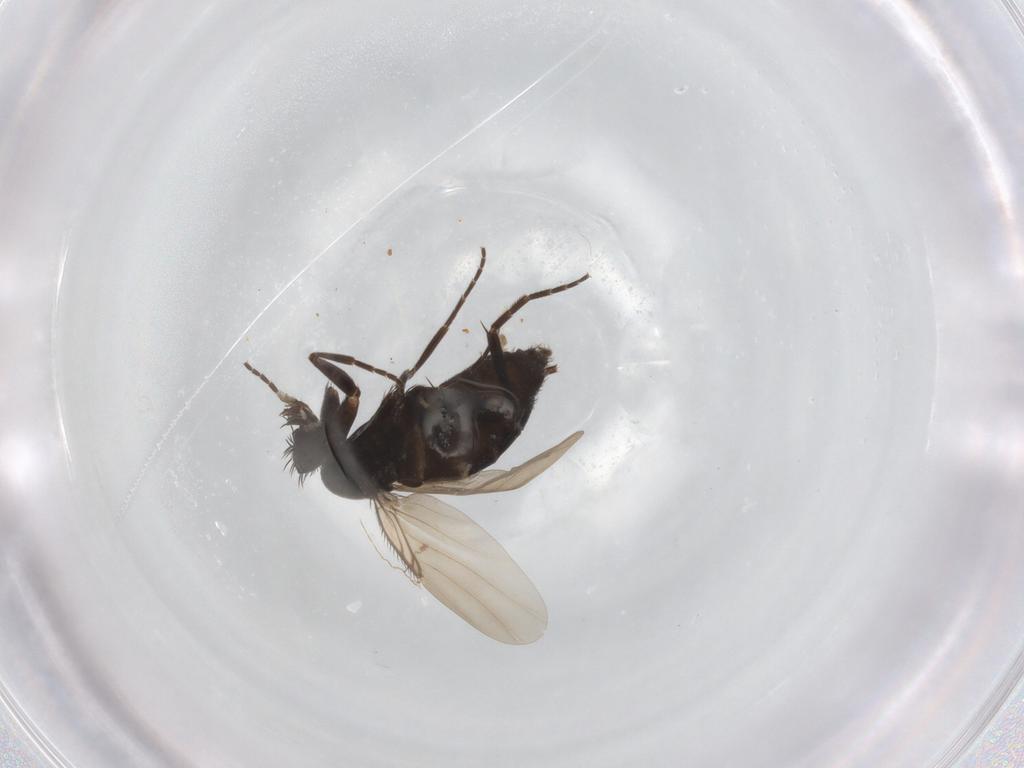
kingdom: Animalia
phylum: Arthropoda
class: Insecta
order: Diptera
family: Phoridae
